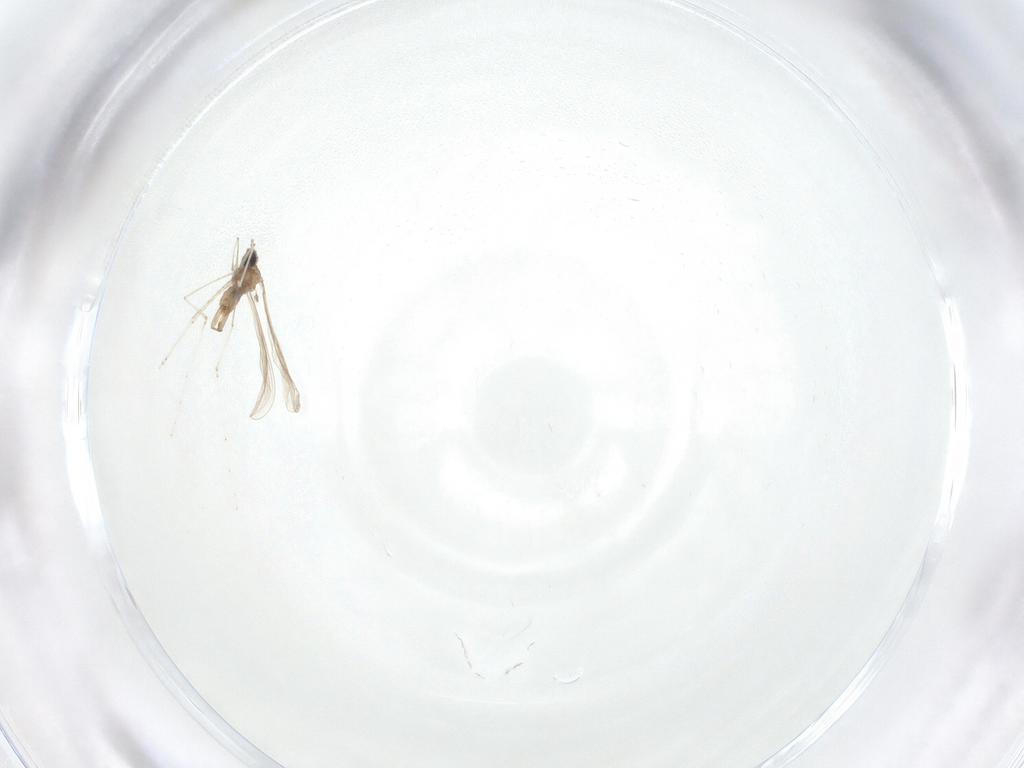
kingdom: Animalia
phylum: Arthropoda
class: Insecta
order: Diptera
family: Cecidomyiidae
